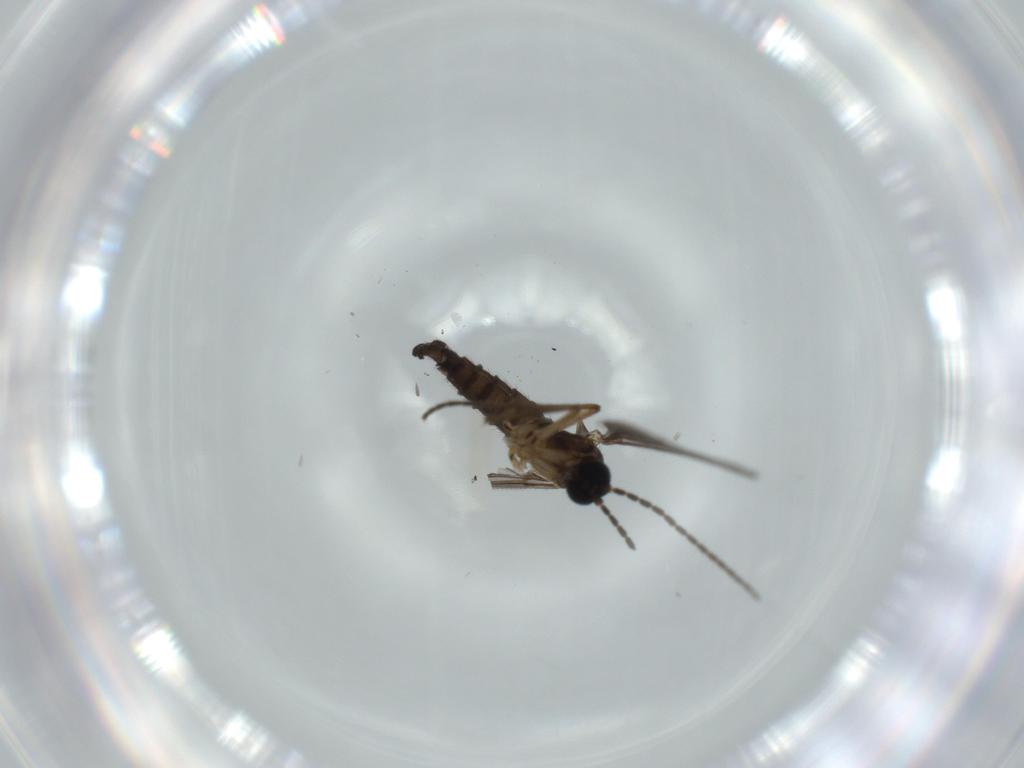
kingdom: Animalia
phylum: Arthropoda
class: Insecta
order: Diptera
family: Sciaridae
